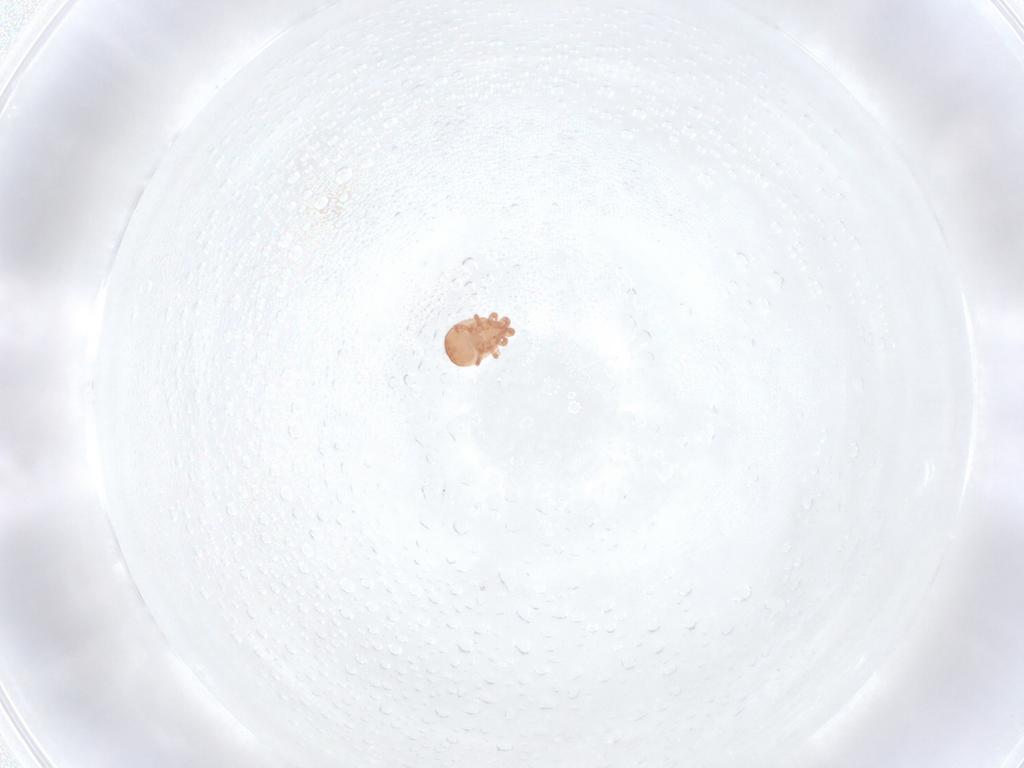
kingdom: Animalia
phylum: Arthropoda
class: Arachnida
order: Mesostigmata
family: Zerconidae
